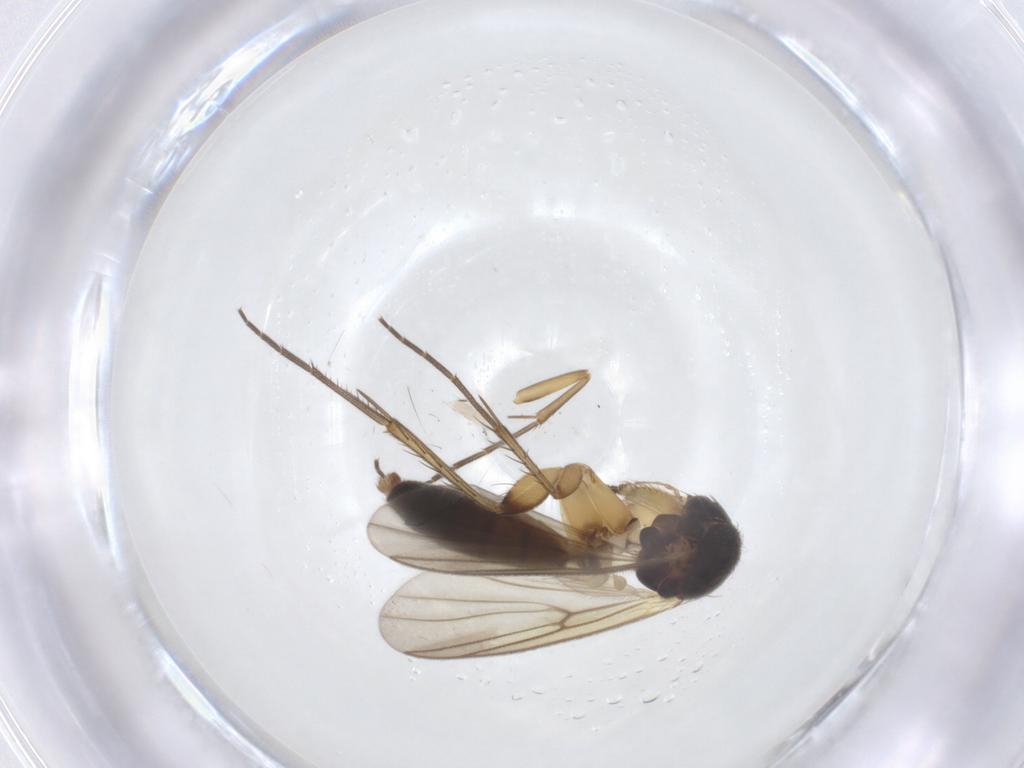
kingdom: Animalia
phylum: Arthropoda
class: Insecta
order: Diptera
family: Mycetophilidae
